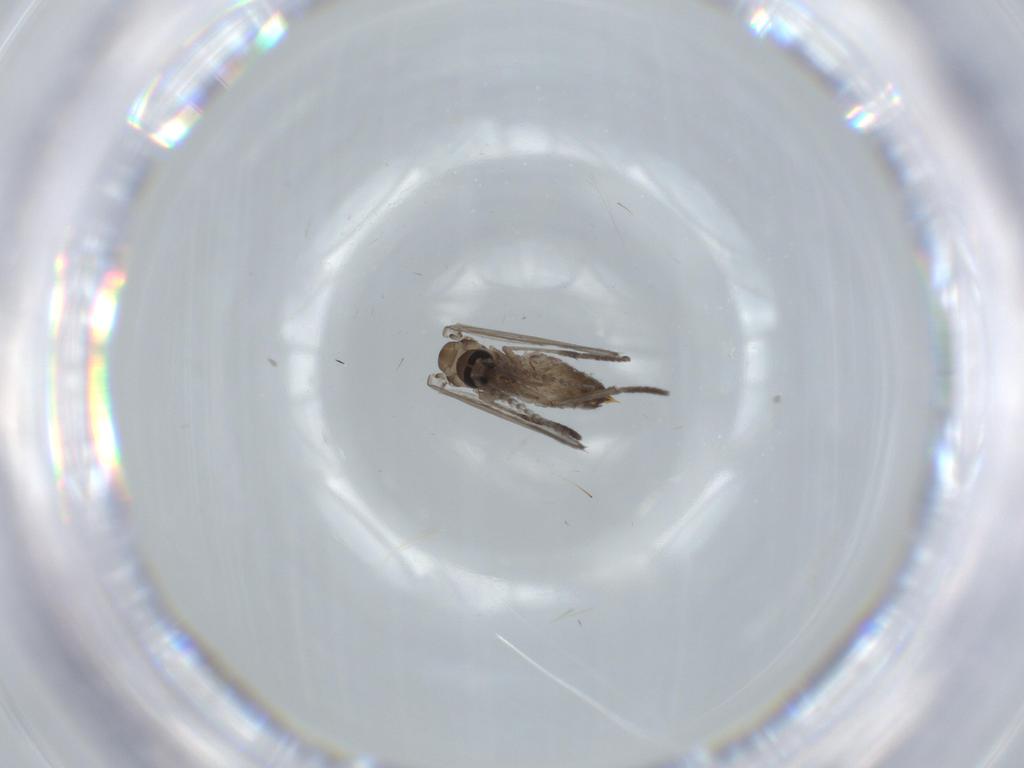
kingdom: Animalia
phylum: Arthropoda
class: Insecta
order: Diptera
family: Psychodidae
